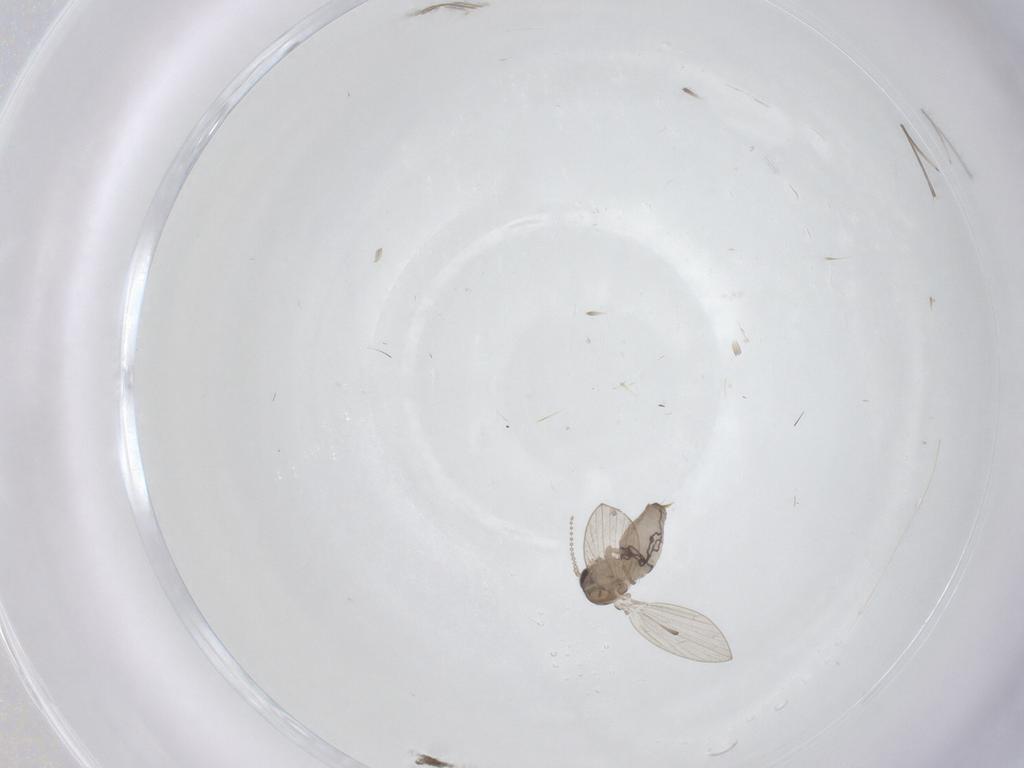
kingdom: Animalia
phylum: Arthropoda
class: Insecta
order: Diptera
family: Psychodidae
